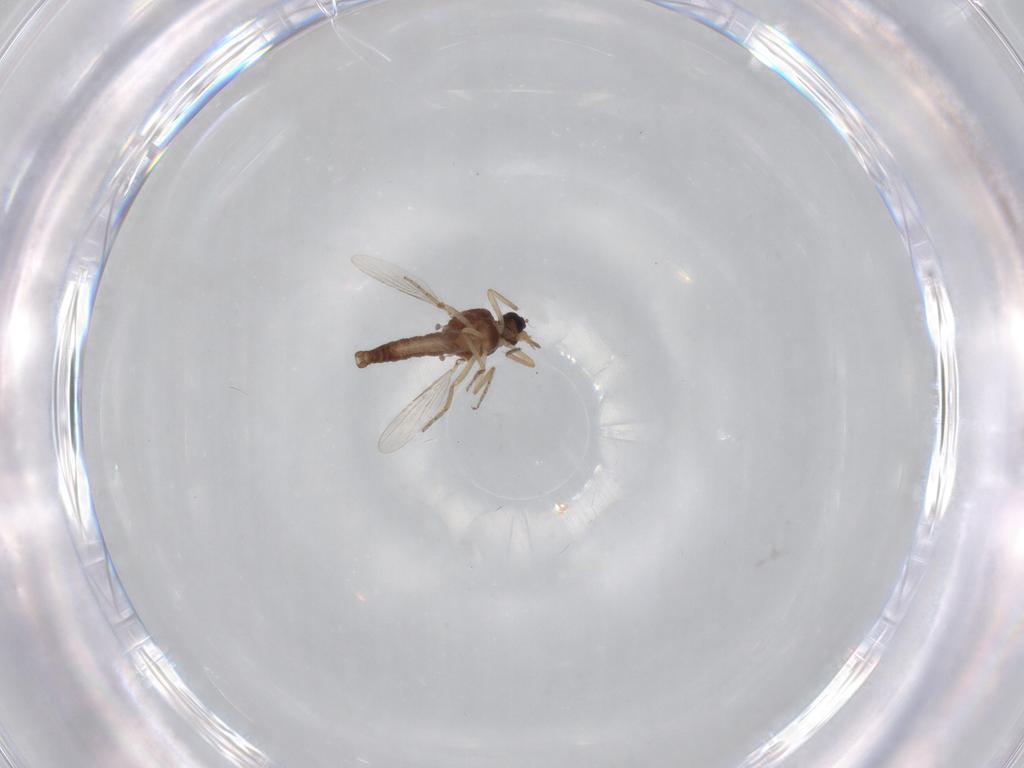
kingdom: Animalia
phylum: Arthropoda
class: Insecta
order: Diptera
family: Ceratopogonidae
